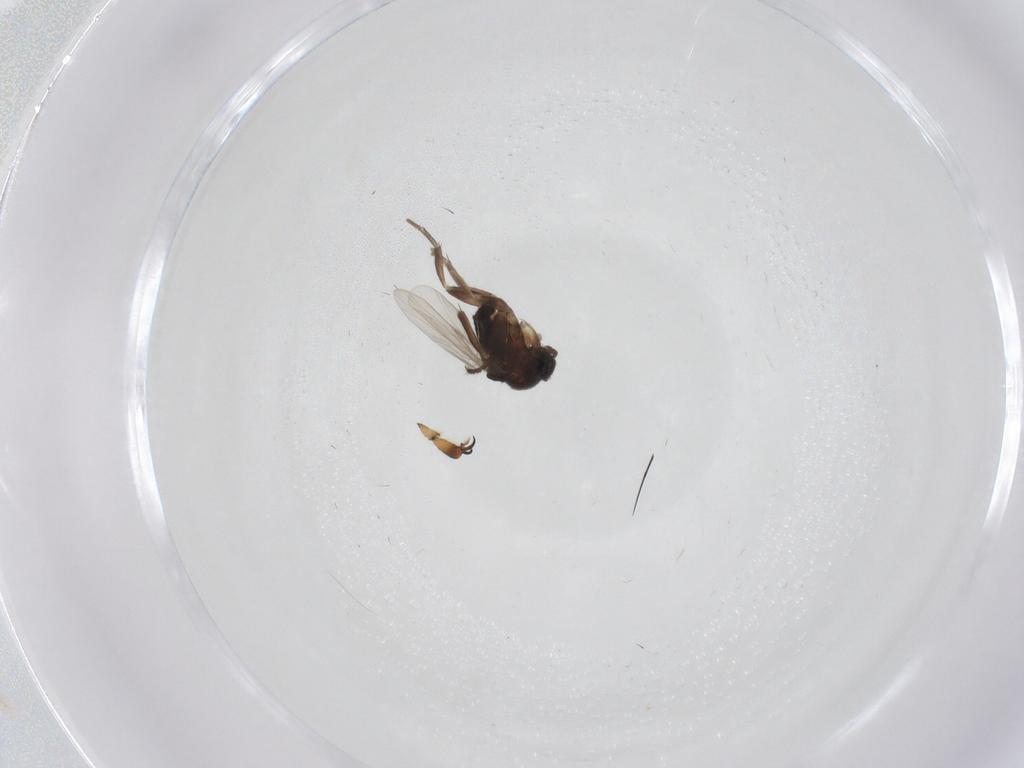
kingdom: Animalia
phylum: Arthropoda
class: Insecta
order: Diptera
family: Phoridae
